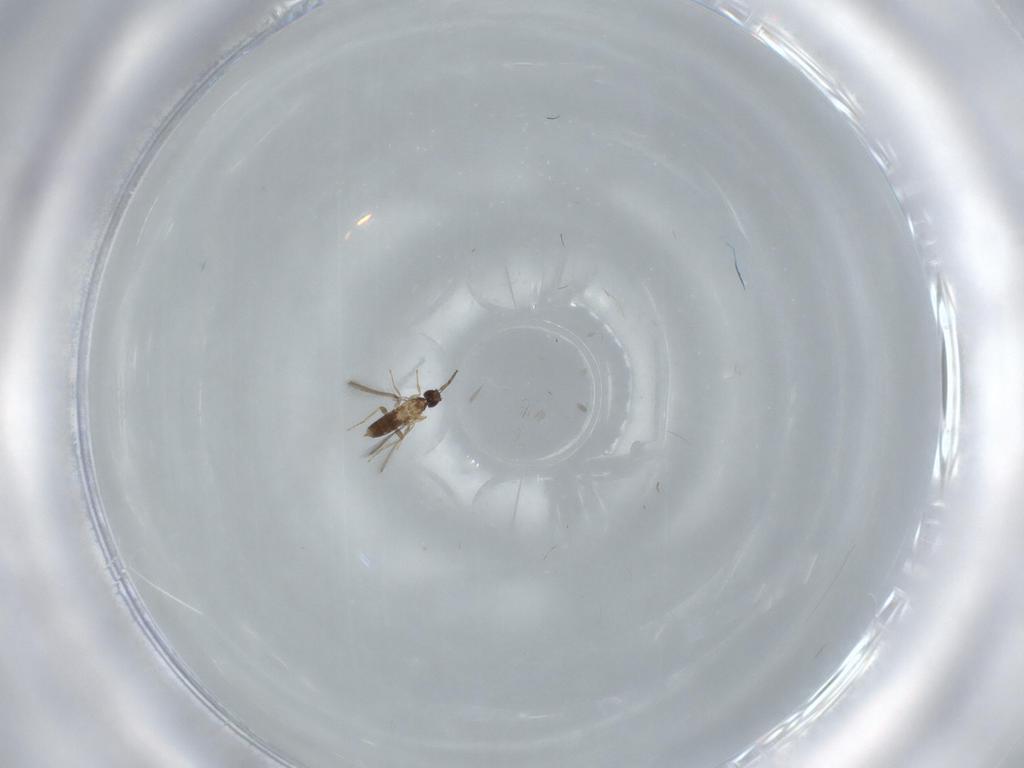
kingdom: Animalia
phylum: Arthropoda
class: Insecta
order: Hymenoptera
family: Mymaridae
